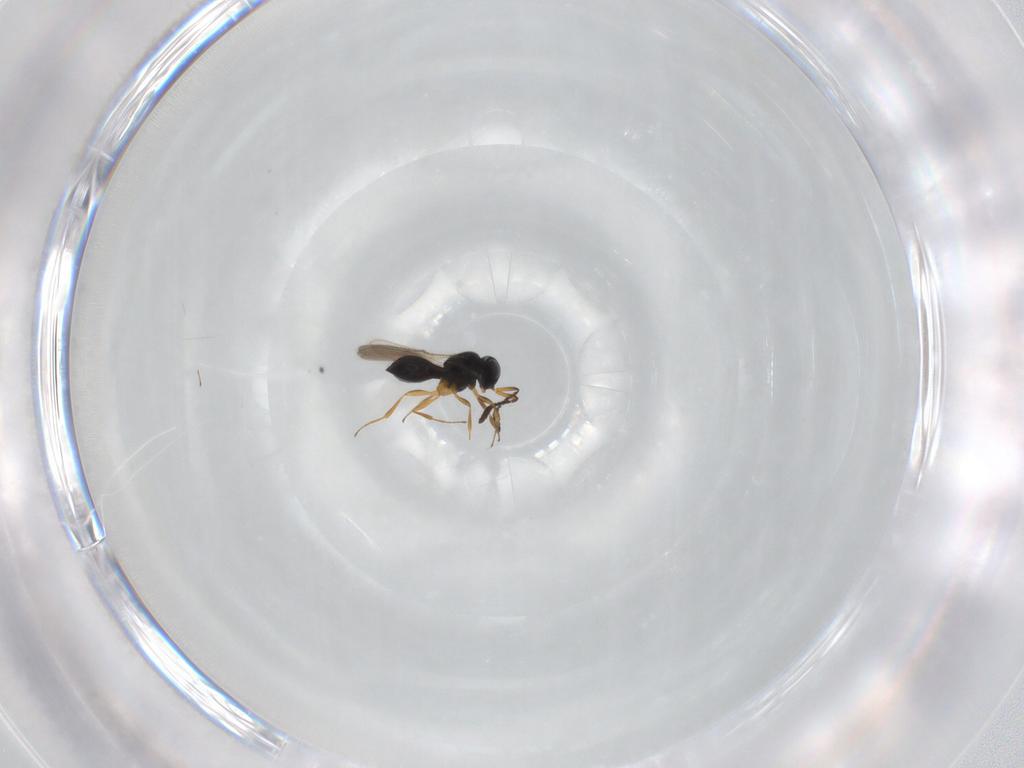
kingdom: Animalia
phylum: Arthropoda
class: Insecta
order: Hymenoptera
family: Scelionidae
